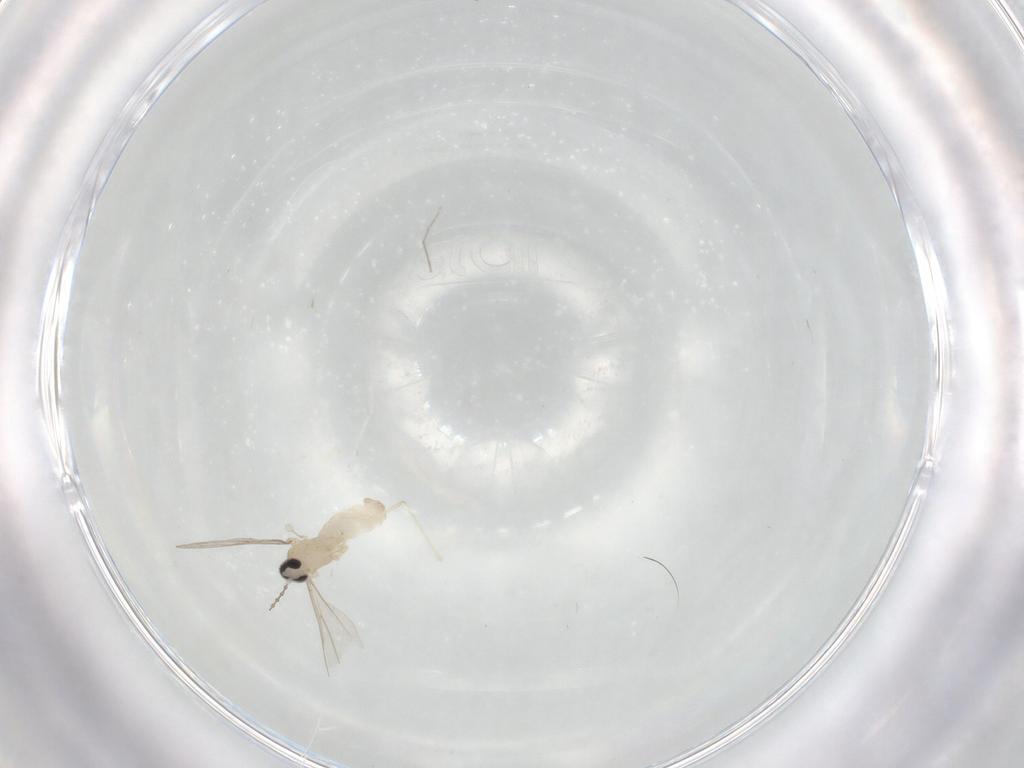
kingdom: Animalia
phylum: Arthropoda
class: Insecta
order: Diptera
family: Cecidomyiidae
